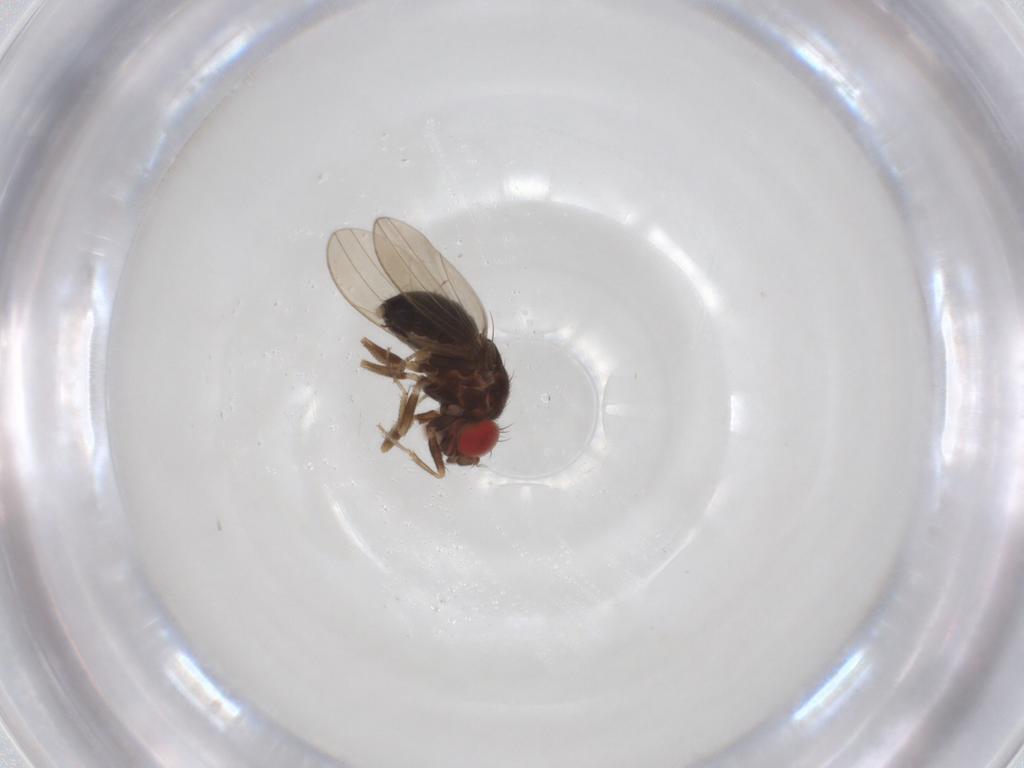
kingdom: Animalia
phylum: Arthropoda
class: Insecta
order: Diptera
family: Drosophilidae
